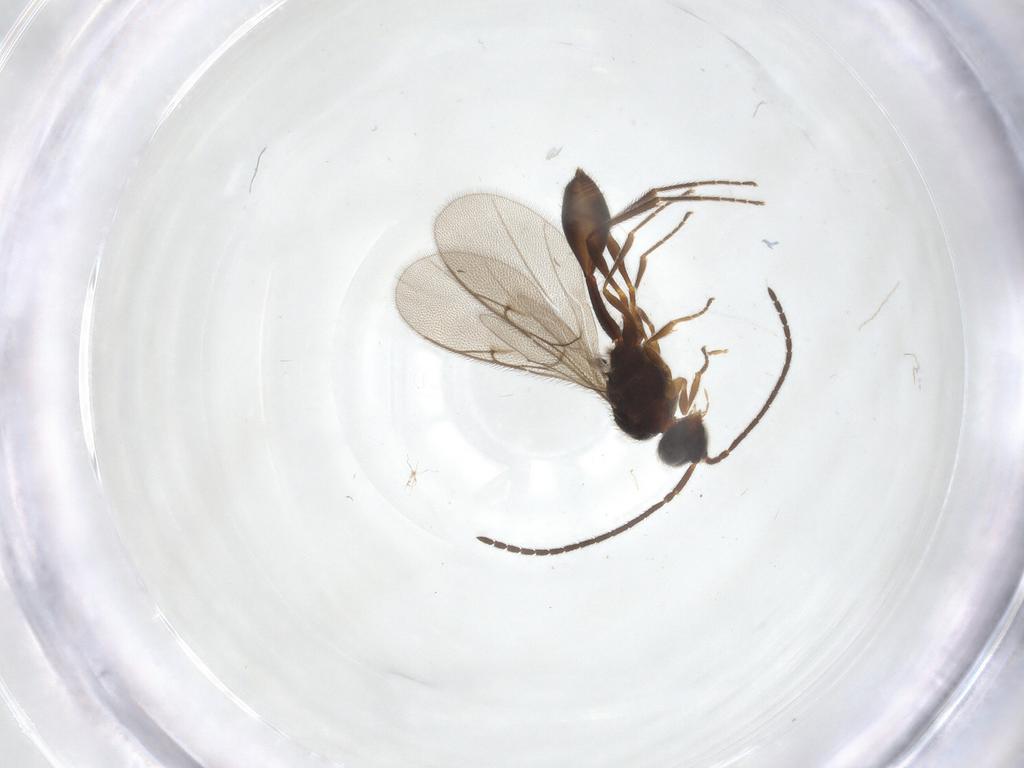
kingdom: Animalia
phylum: Arthropoda
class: Insecta
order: Hymenoptera
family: Diapriidae
